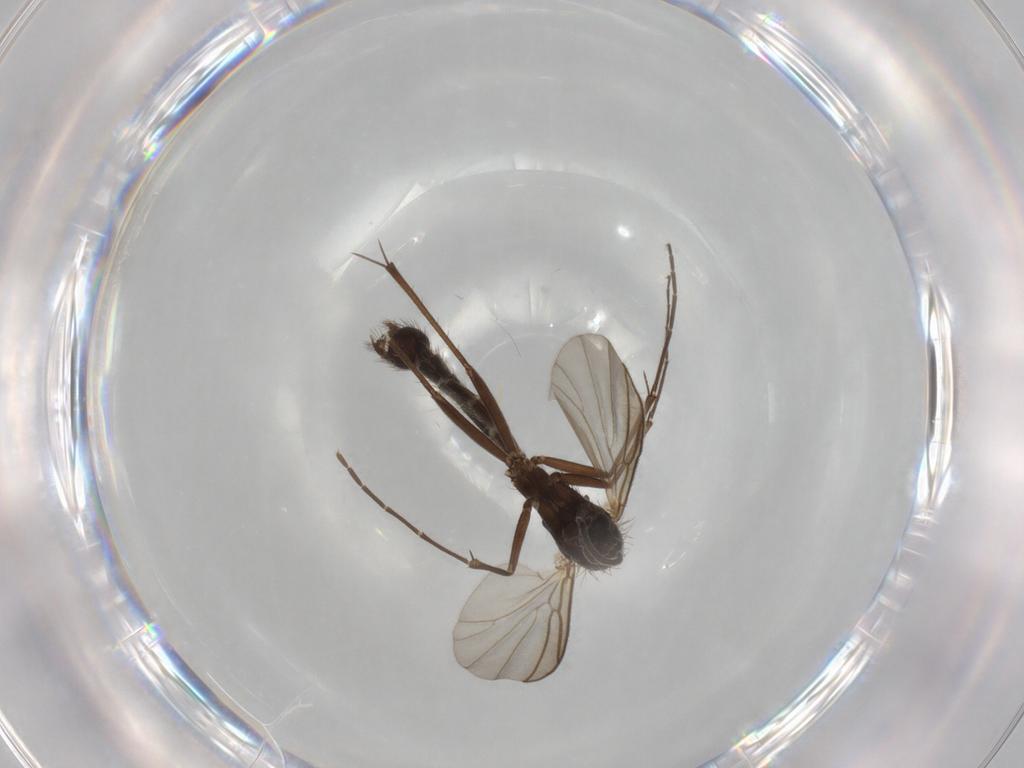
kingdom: Animalia
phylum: Arthropoda
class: Insecta
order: Diptera
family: Mycetophilidae
